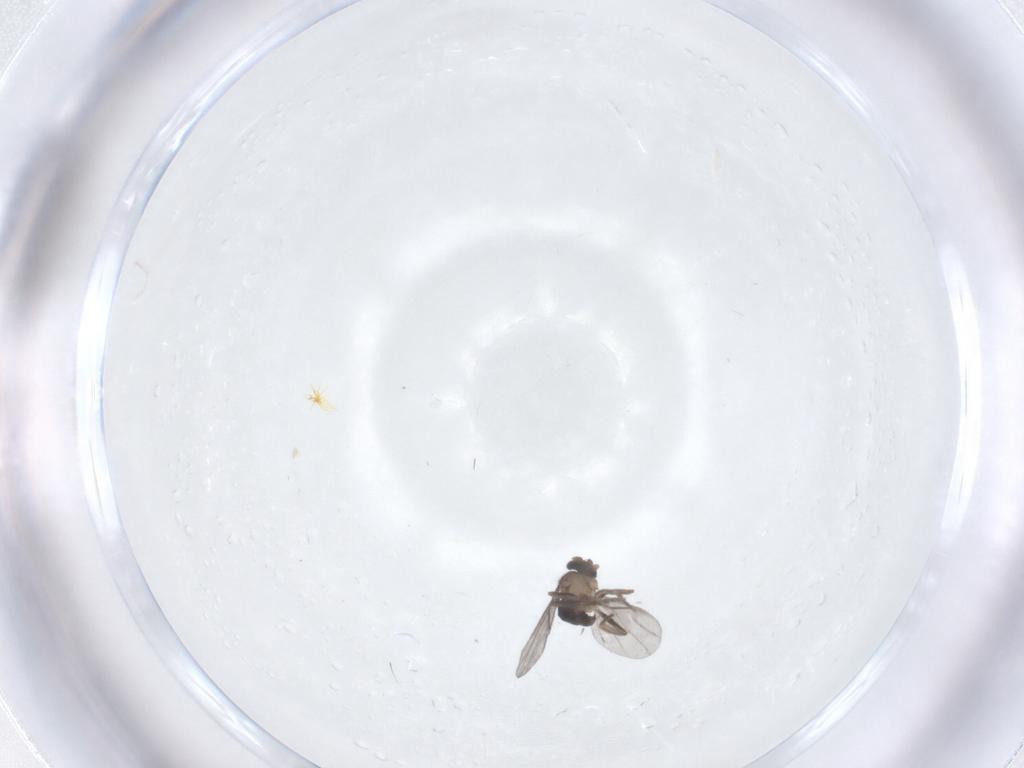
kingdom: Animalia
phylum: Arthropoda
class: Insecta
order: Diptera
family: Phoridae
